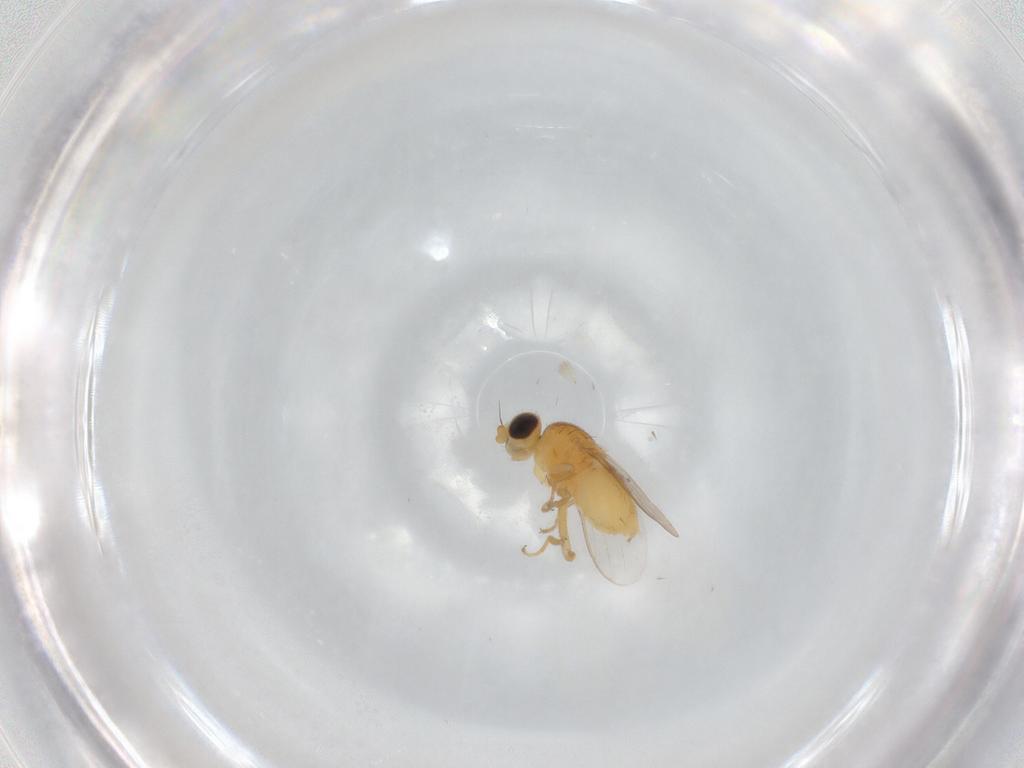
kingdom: Animalia
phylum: Arthropoda
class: Insecta
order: Diptera
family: Chloropidae
